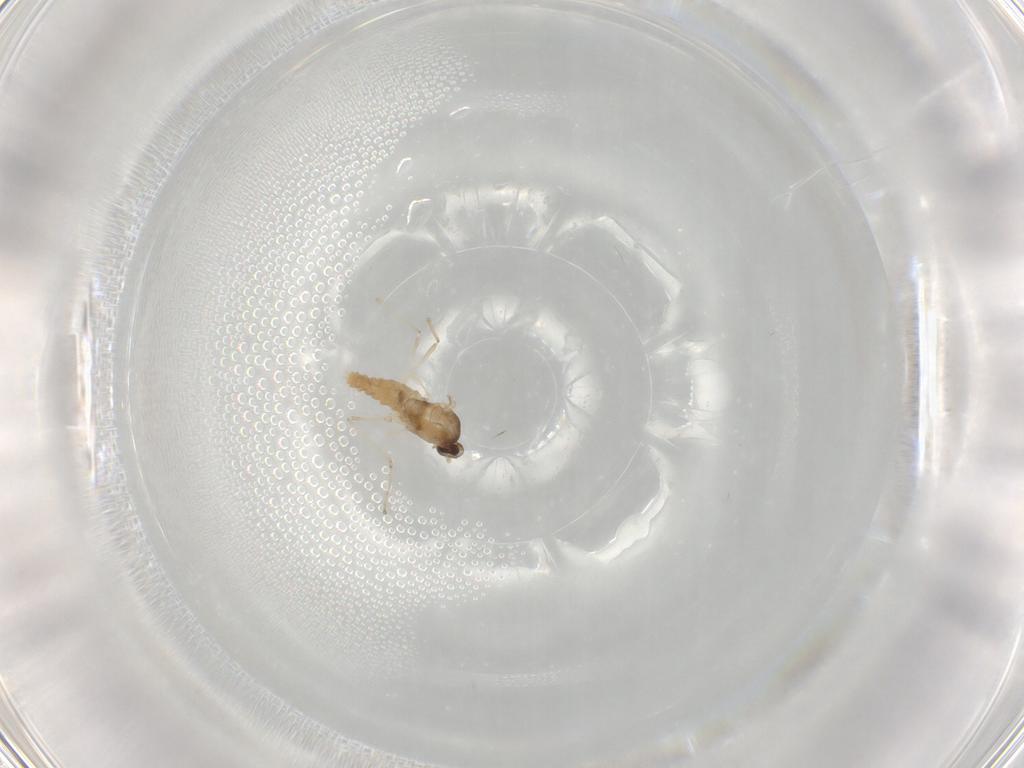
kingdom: Animalia
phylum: Arthropoda
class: Insecta
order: Diptera
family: Cecidomyiidae
